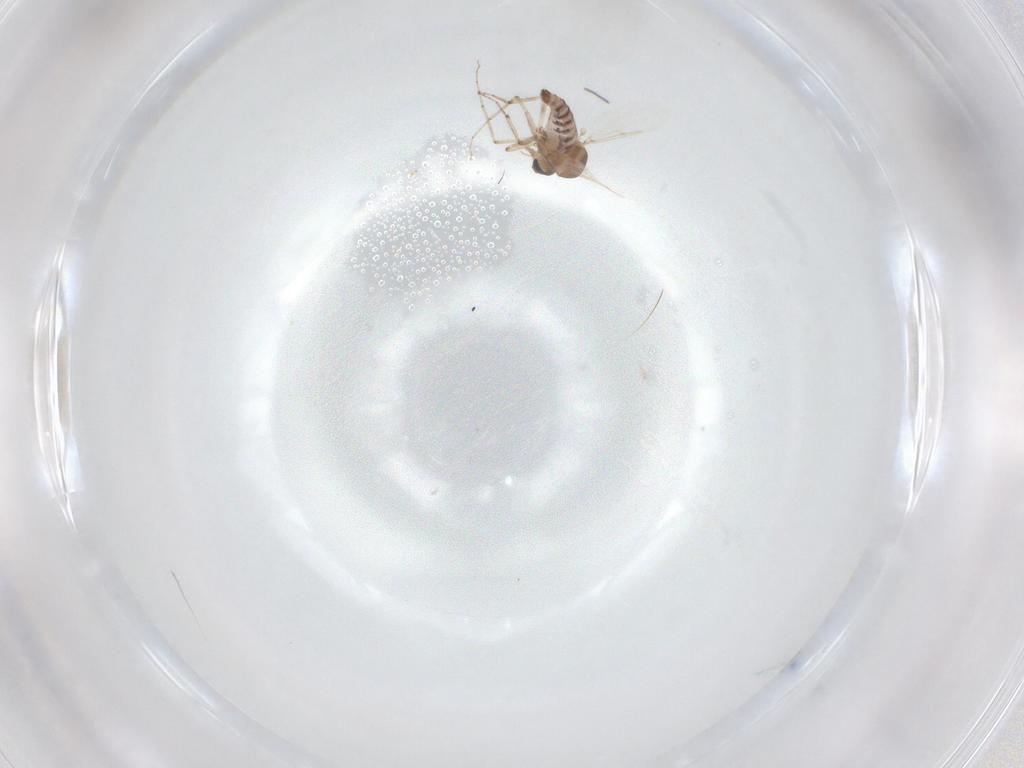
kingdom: Animalia
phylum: Arthropoda
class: Insecta
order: Diptera
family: Ceratopogonidae
